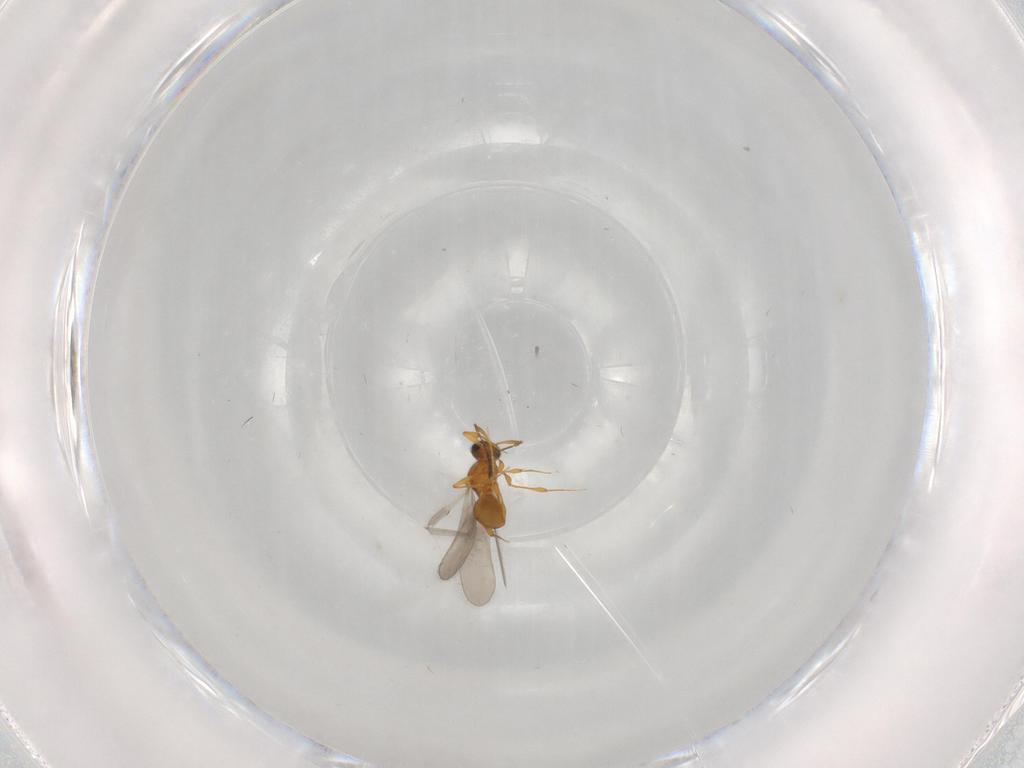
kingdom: Animalia
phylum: Arthropoda
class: Insecta
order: Hymenoptera
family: Platygastridae
